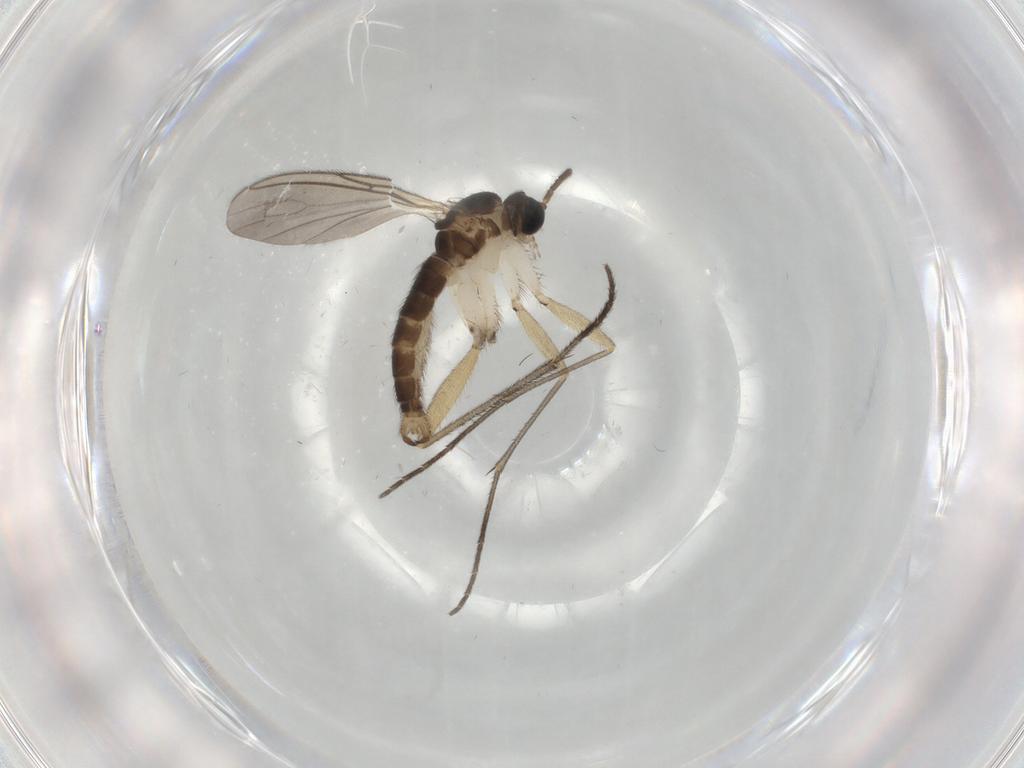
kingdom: Animalia
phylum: Arthropoda
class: Insecta
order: Diptera
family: Sciaridae
